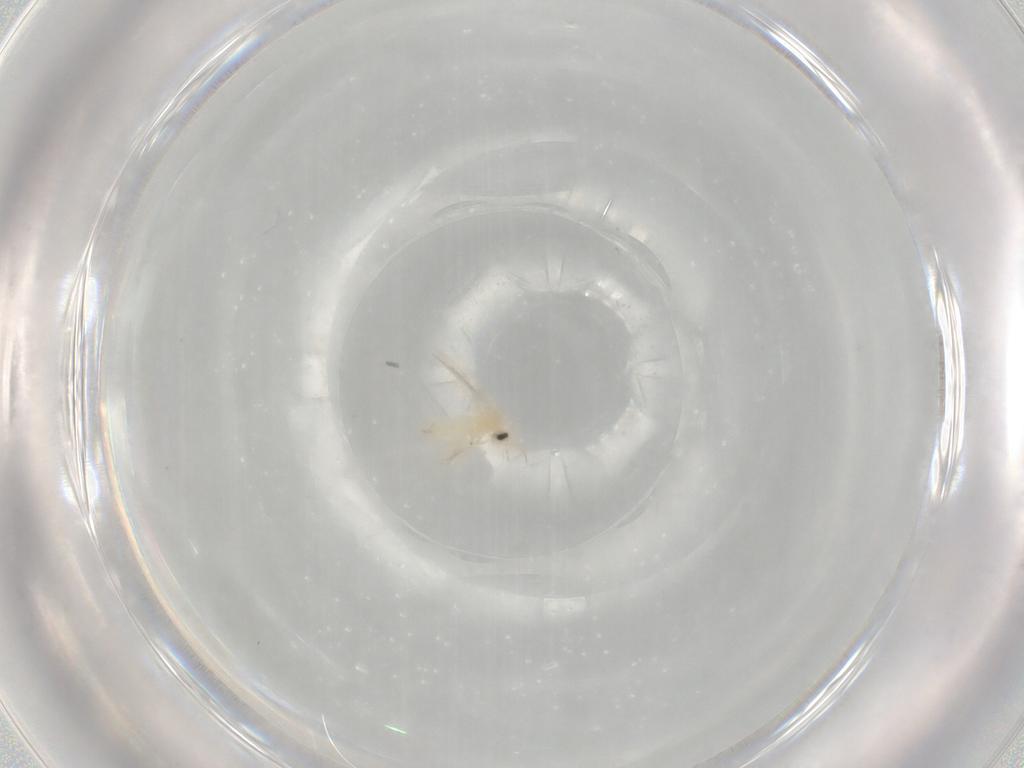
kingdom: Animalia
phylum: Arthropoda
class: Insecta
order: Hemiptera
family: Aleyrodidae
